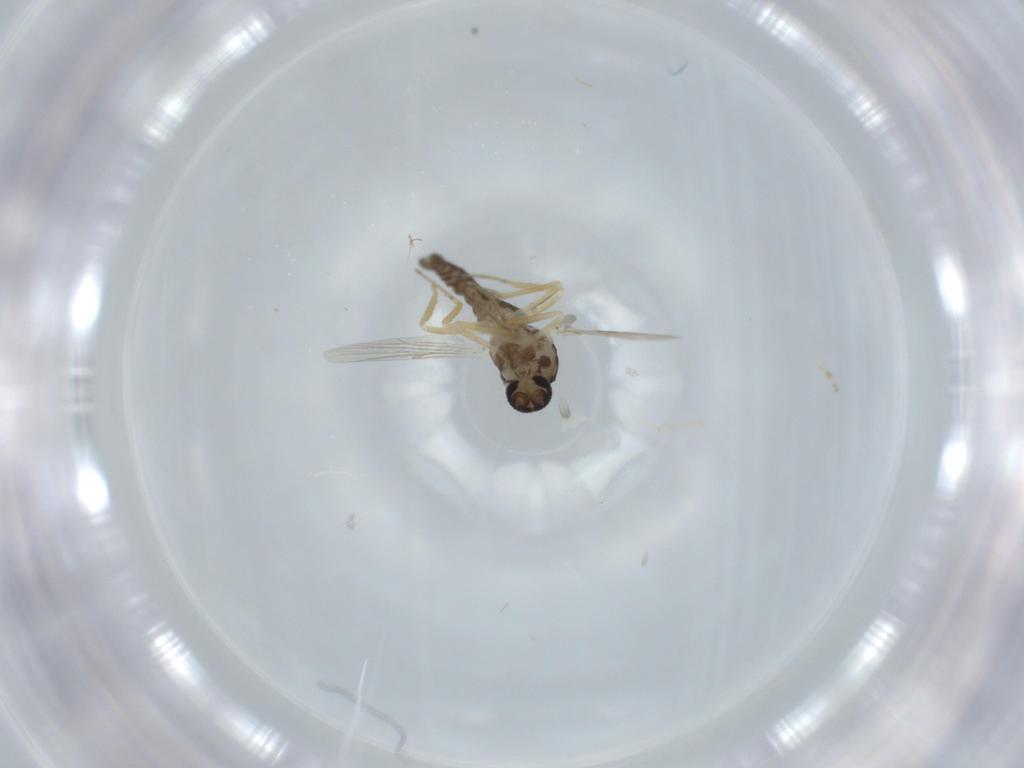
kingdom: Animalia
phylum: Arthropoda
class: Insecta
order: Diptera
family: Ceratopogonidae
